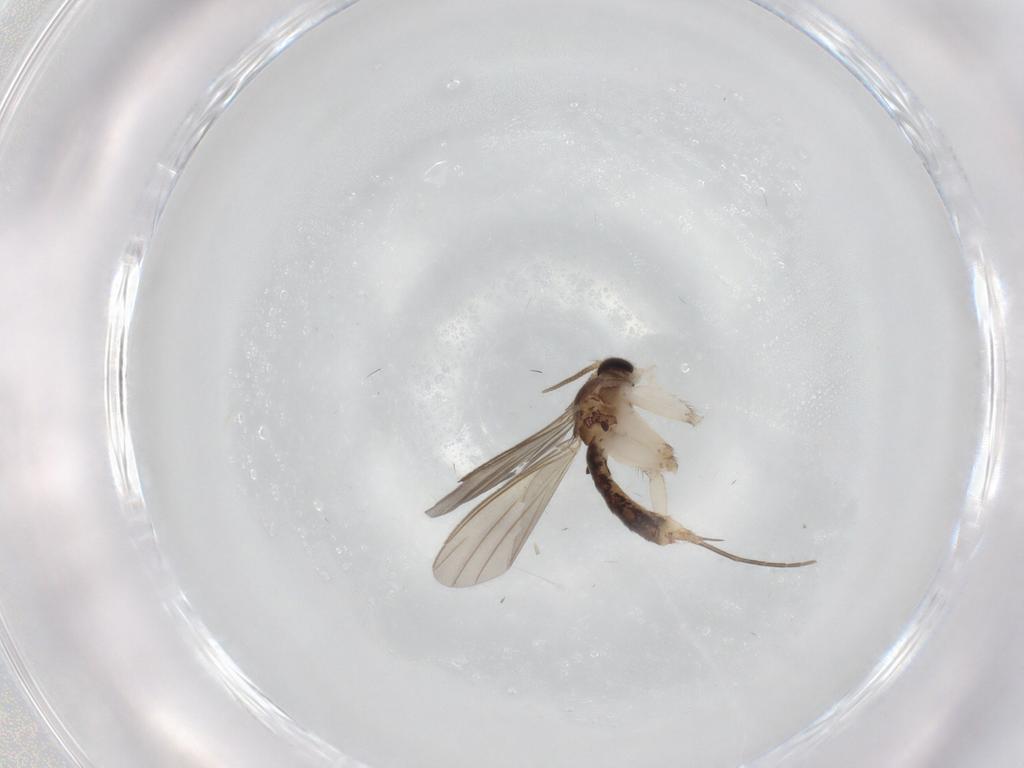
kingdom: Animalia
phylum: Arthropoda
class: Insecta
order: Diptera
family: Mycetophilidae
